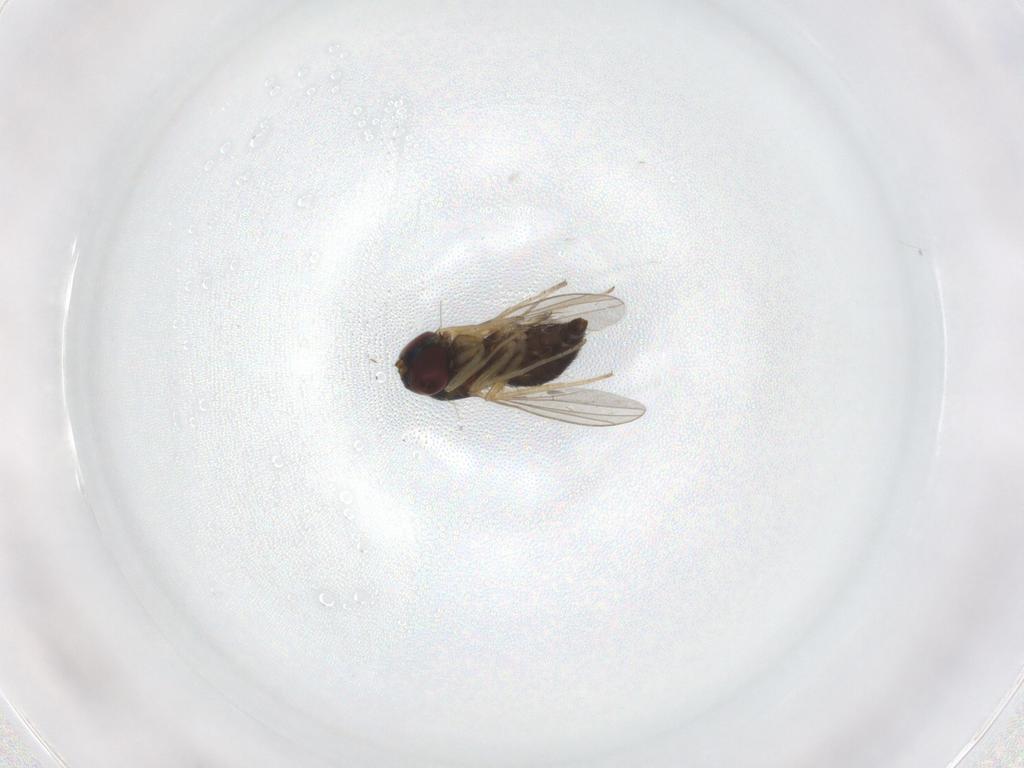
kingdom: Animalia
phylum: Arthropoda
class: Insecta
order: Diptera
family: Dolichopodidae
